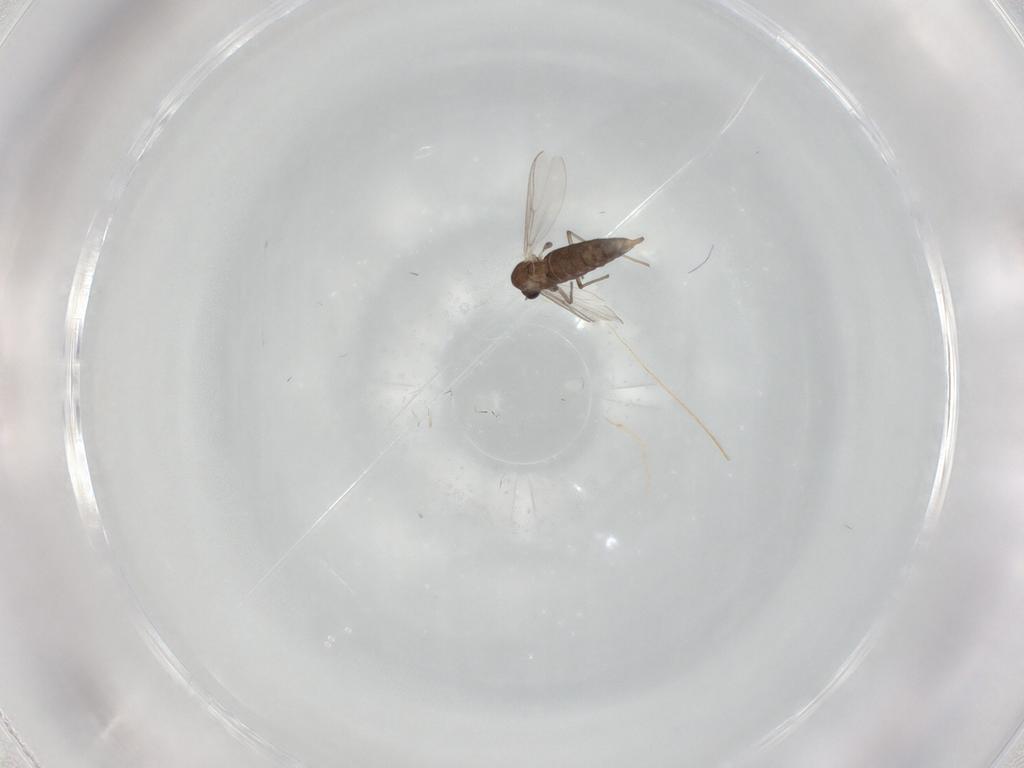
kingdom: Animalia
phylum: Arthropoda
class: Insecta
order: Diptera
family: Chironomidae
